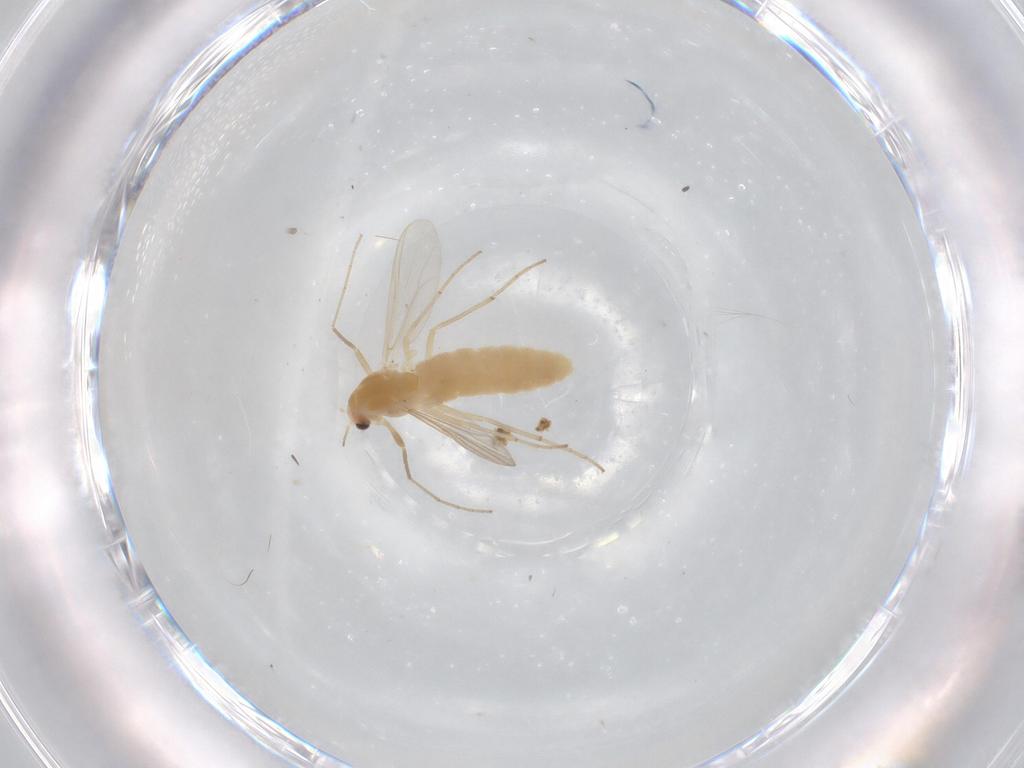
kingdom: Animalia
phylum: Arthropoda
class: Insecta
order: Diptera
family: Chironomidae
